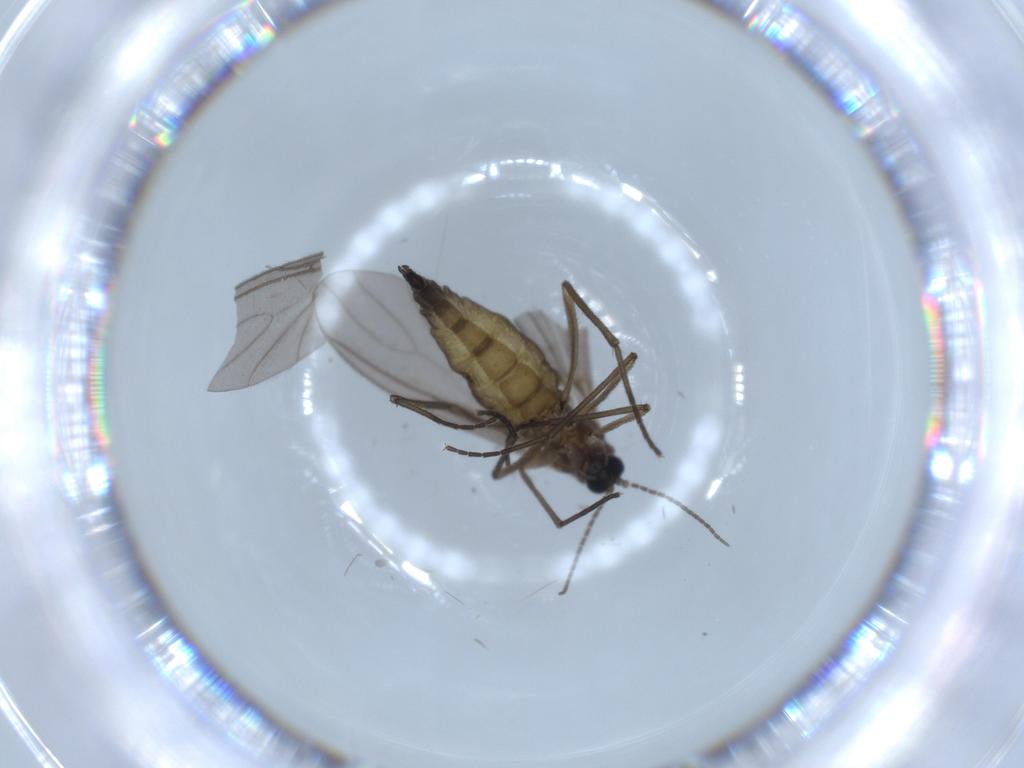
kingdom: Animalia
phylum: Arthropoda
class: Insecta
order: Diptera
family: Sciaridae
